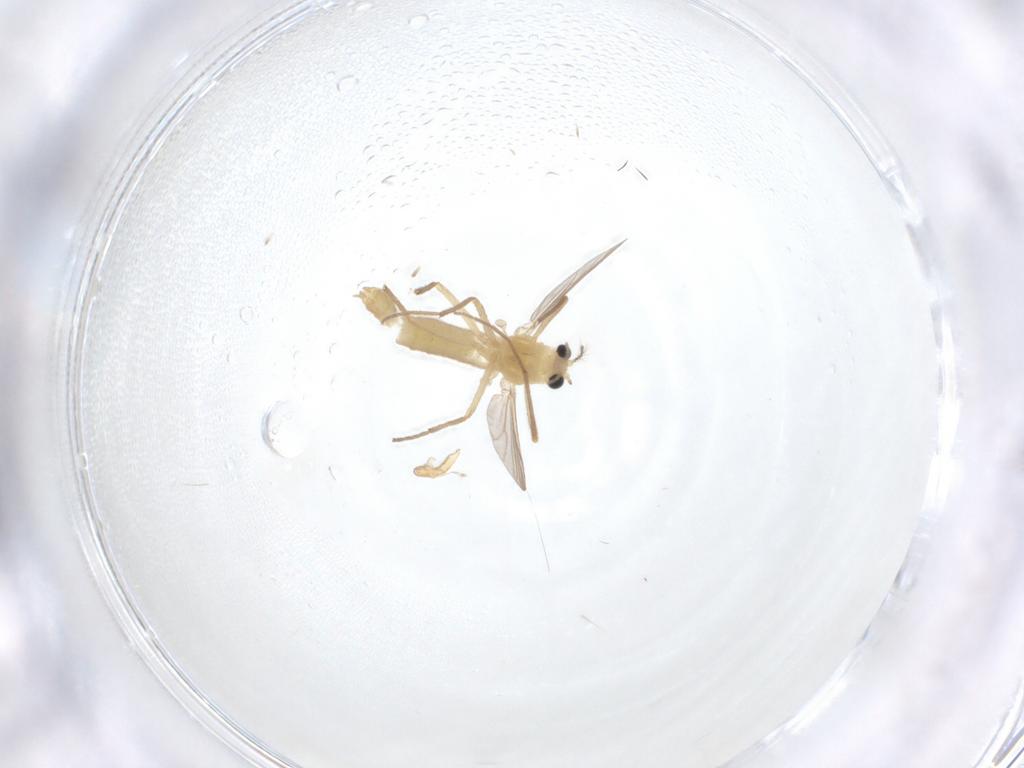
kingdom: Animalia
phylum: Arthropoda
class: Insecta
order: Diptera
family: Chironomidae
